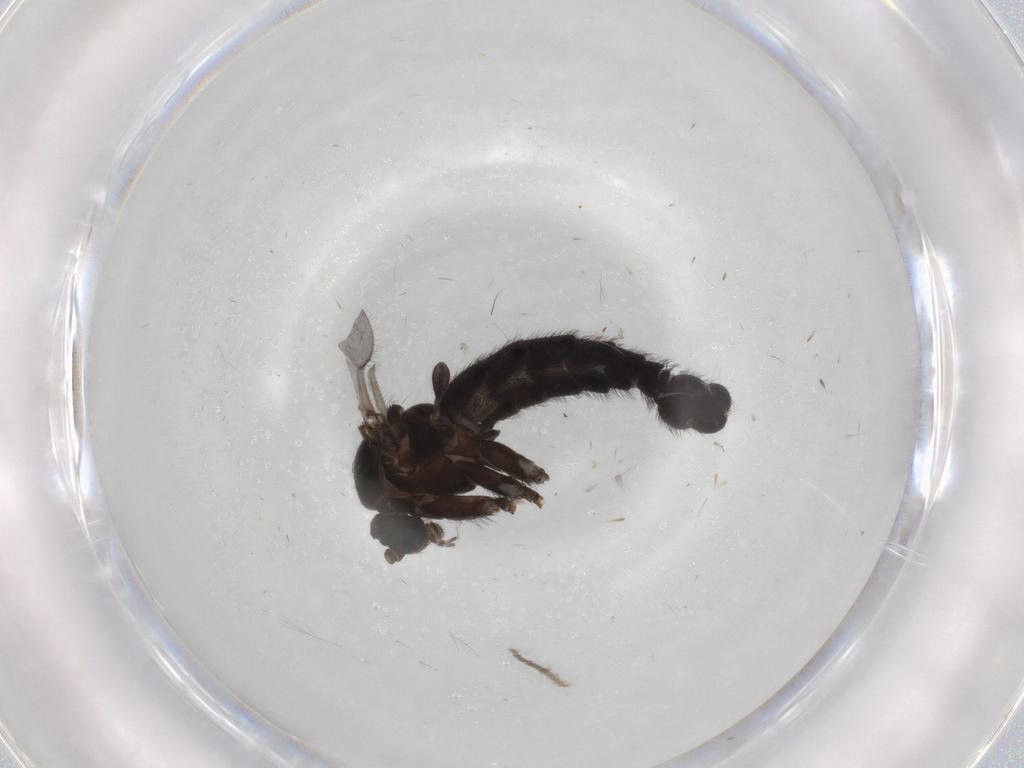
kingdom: Animalia
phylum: Arthropoda
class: Insecta
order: Diptera
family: Sciaridae
